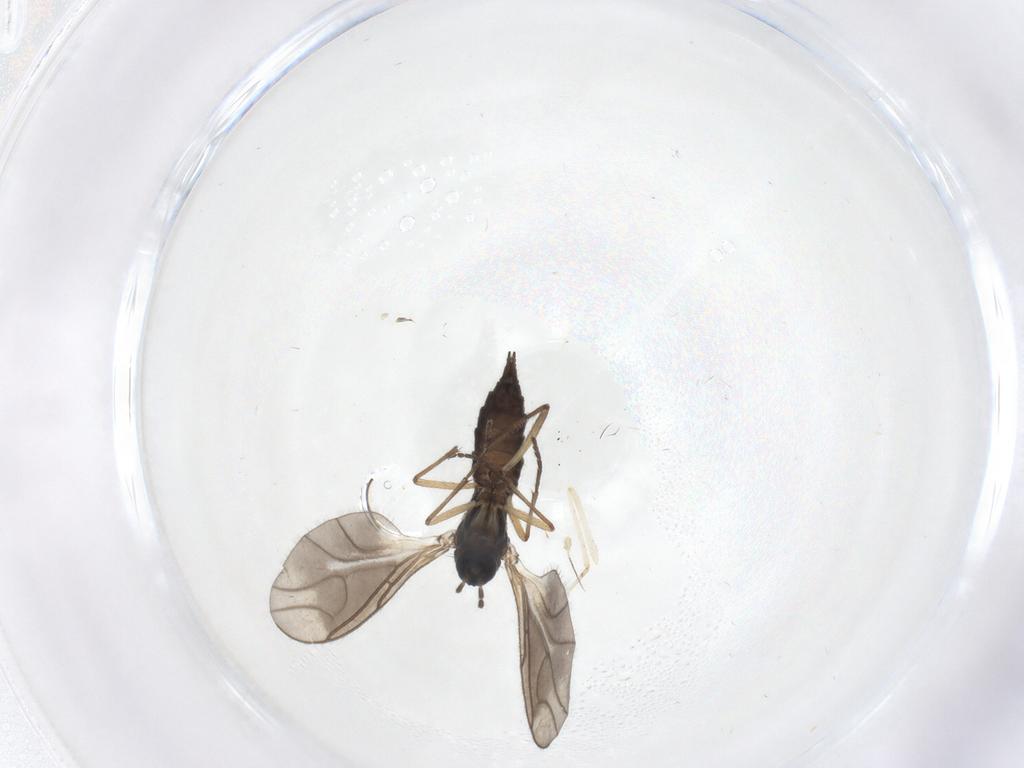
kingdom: Animalia
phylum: Arthropoda
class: Insecta
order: Diptera
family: Sciaridae
